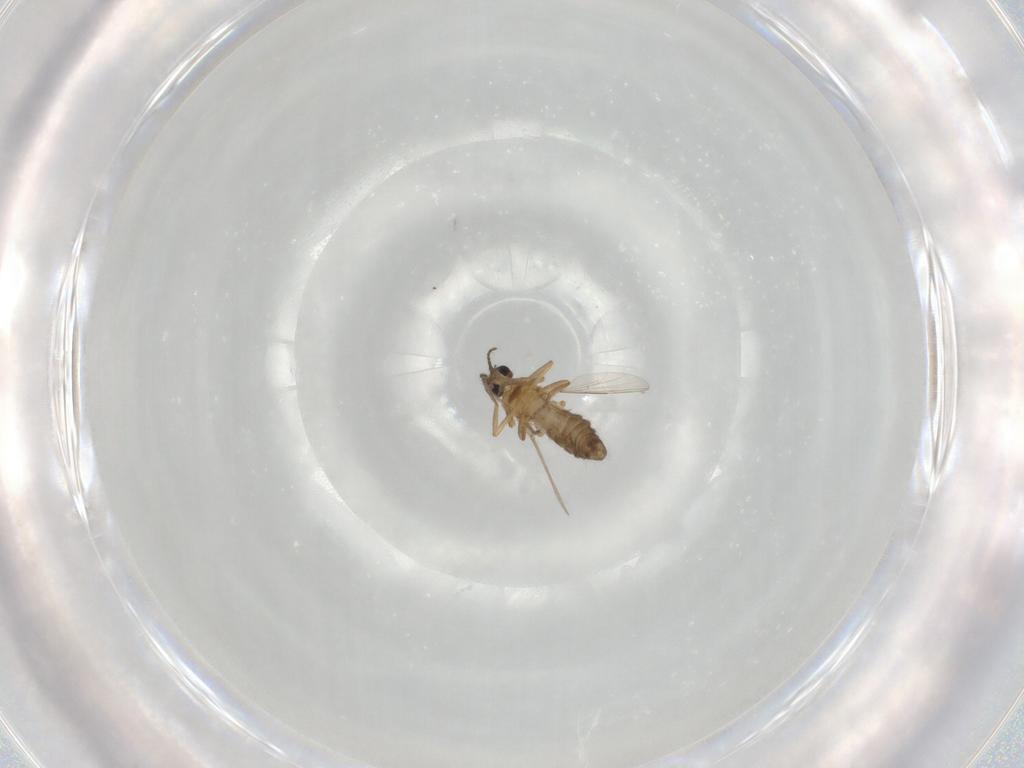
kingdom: Animalia
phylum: Arthropoda
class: Insecta
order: Diptera
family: Ceratopogonidae
